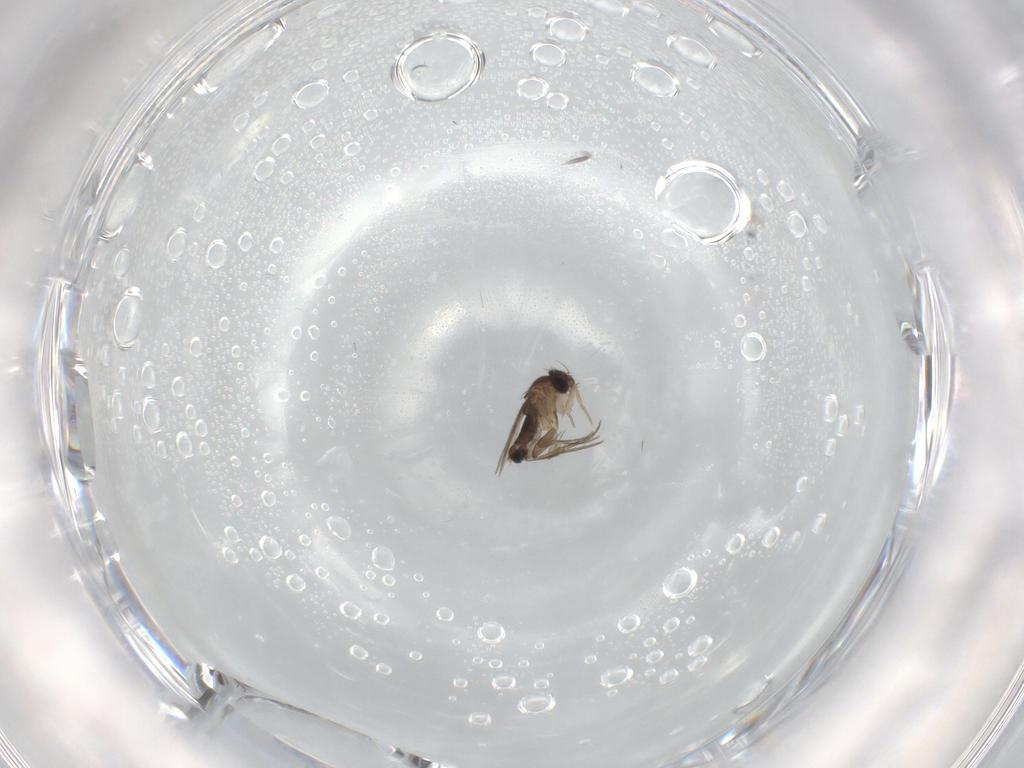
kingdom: Animalia
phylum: Arthropoda
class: Insecta
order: Diptera
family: Phoridae
